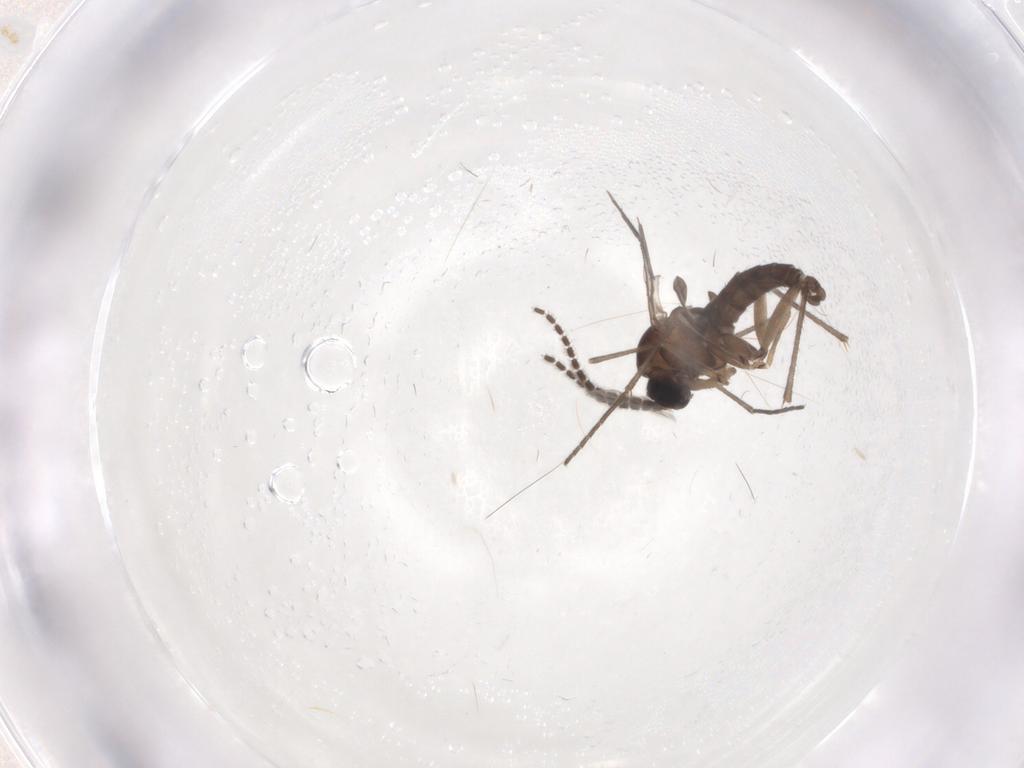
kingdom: Animalia
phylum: Arthropoda
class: Insecta
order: Diptera
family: Sciaridae
